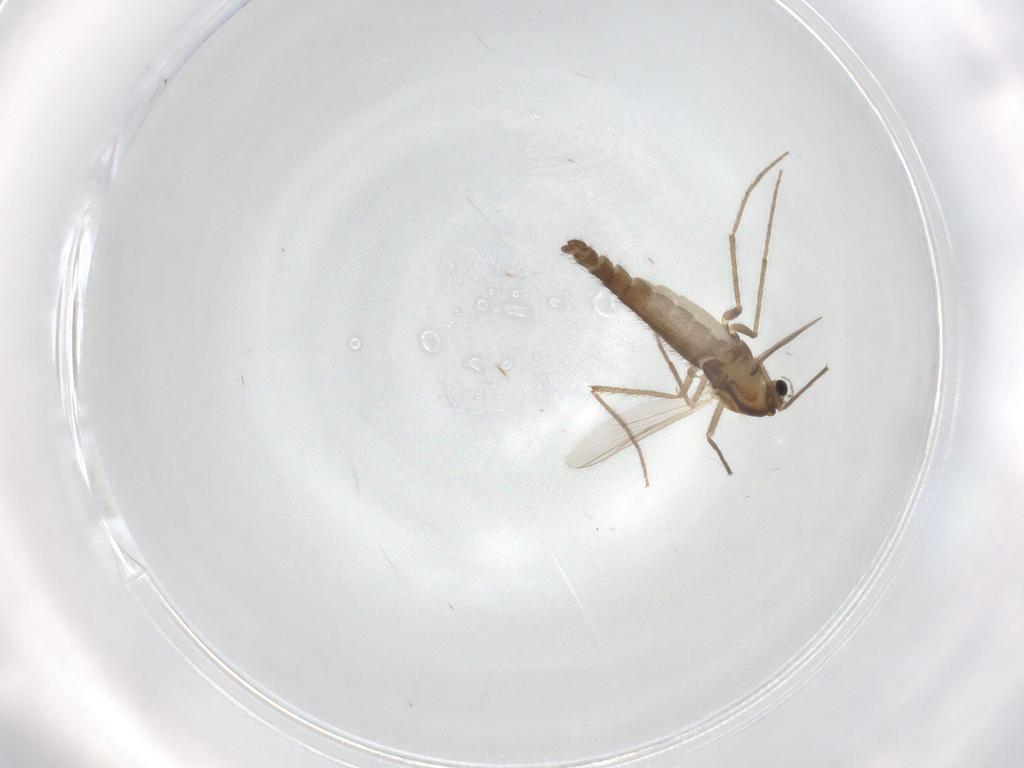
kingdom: Animalia
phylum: Arthropoda
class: Insecta
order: Diptera
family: Chironomidae
